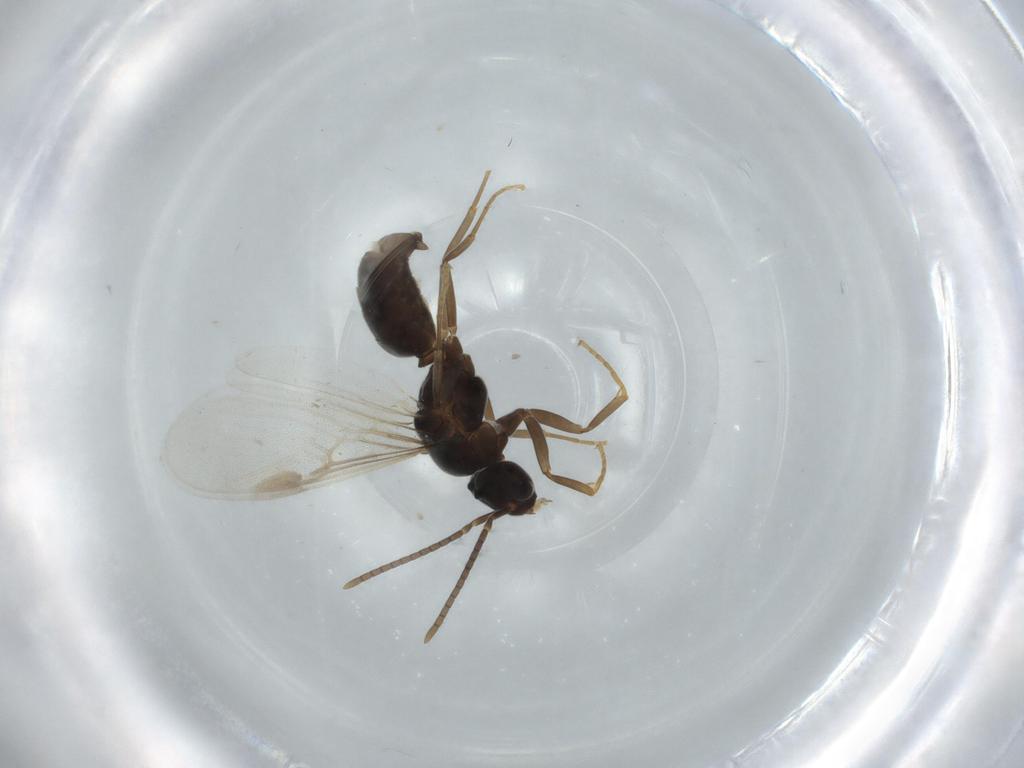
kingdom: Animalia
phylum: Arthropoda
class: Insecta
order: Hymenoptera
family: Formicidae
